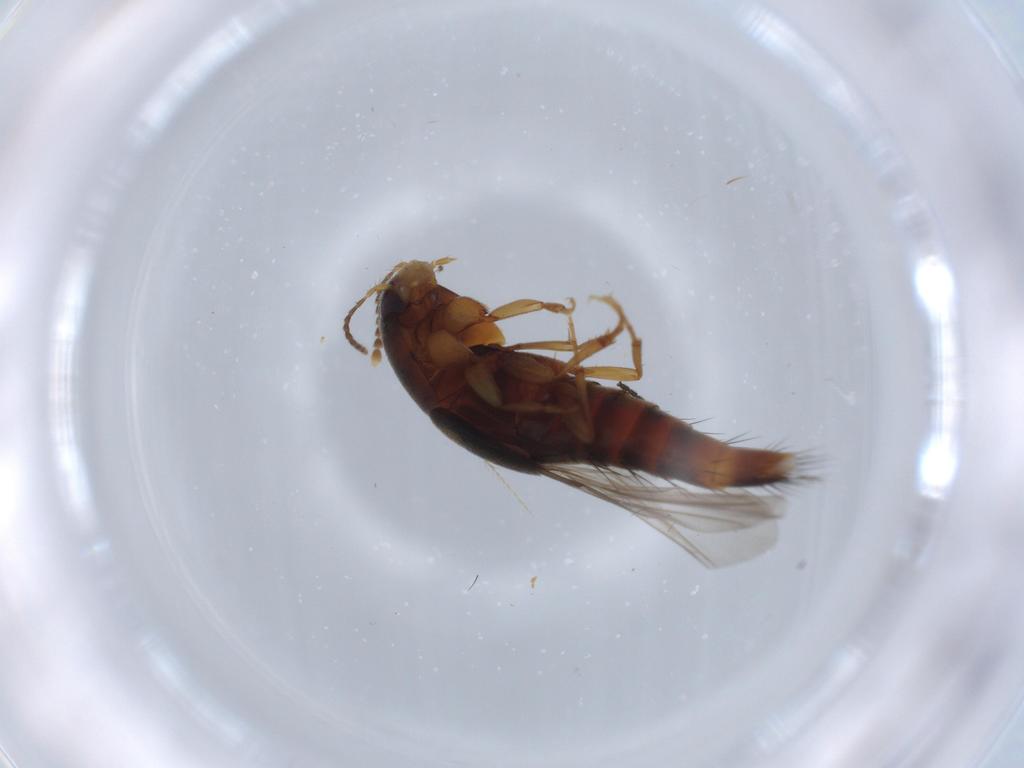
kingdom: Animalia
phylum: Arthropoda
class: Insecta
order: Coleoptera
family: Staphylinidae
